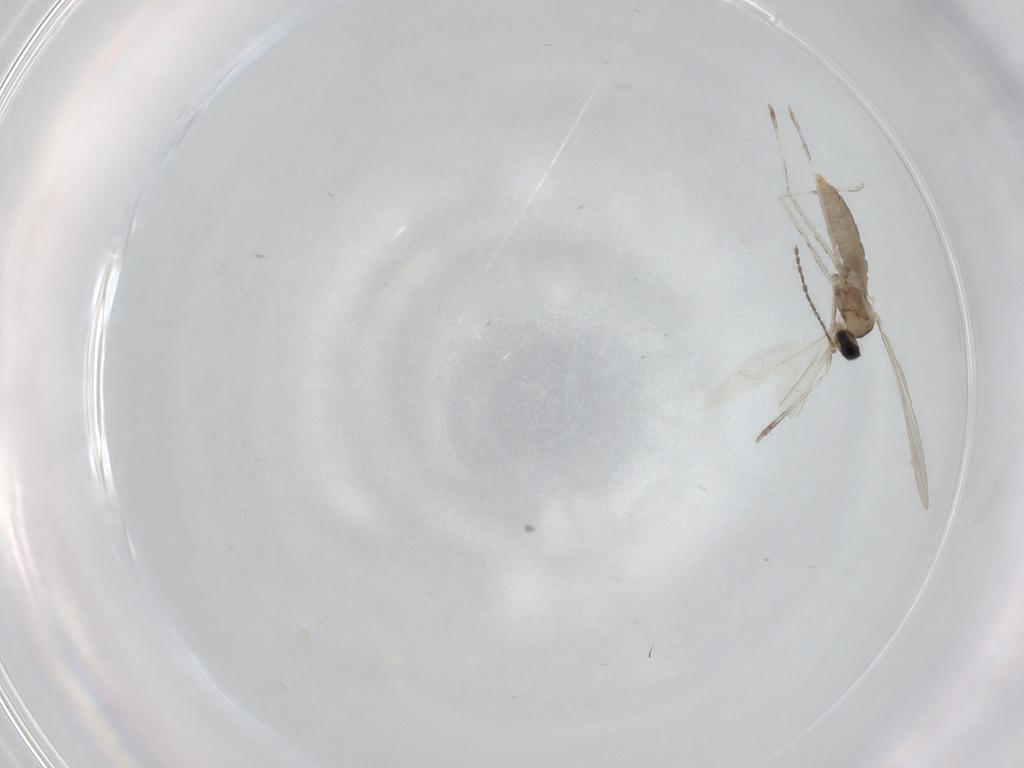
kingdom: Animalia
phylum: Arthropoda
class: Insecta
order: Diptera
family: Cecidomyiidae
